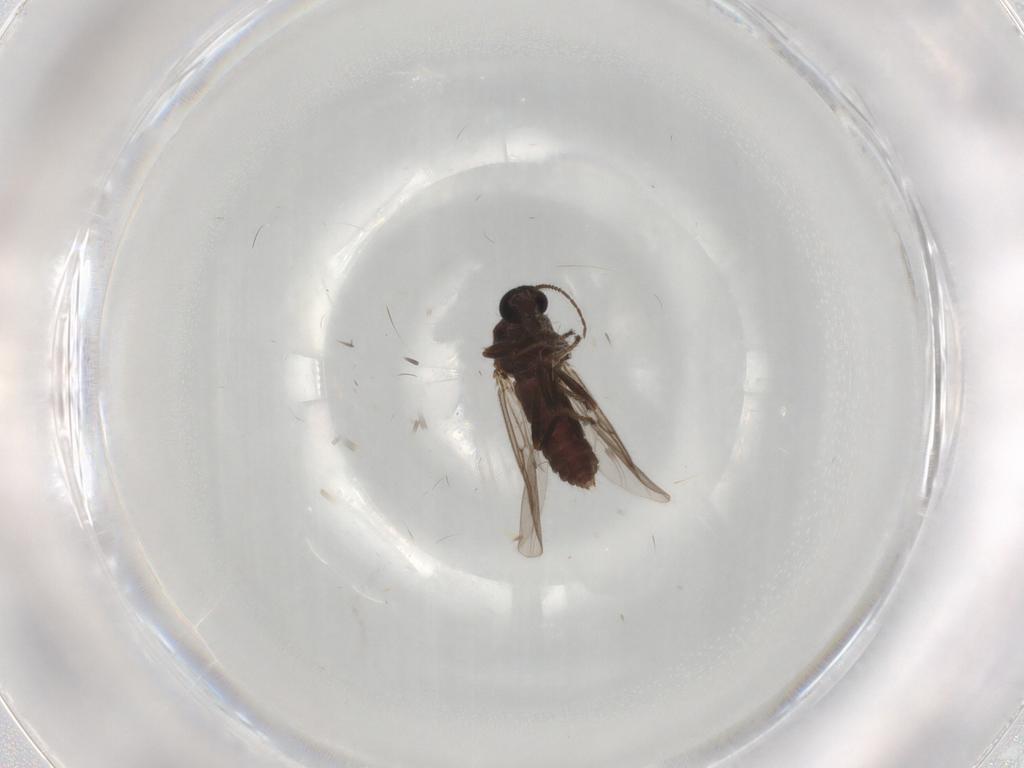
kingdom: Animalia
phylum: Arthropoda
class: Insecta
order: Diptera
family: Ceratopogonidae
